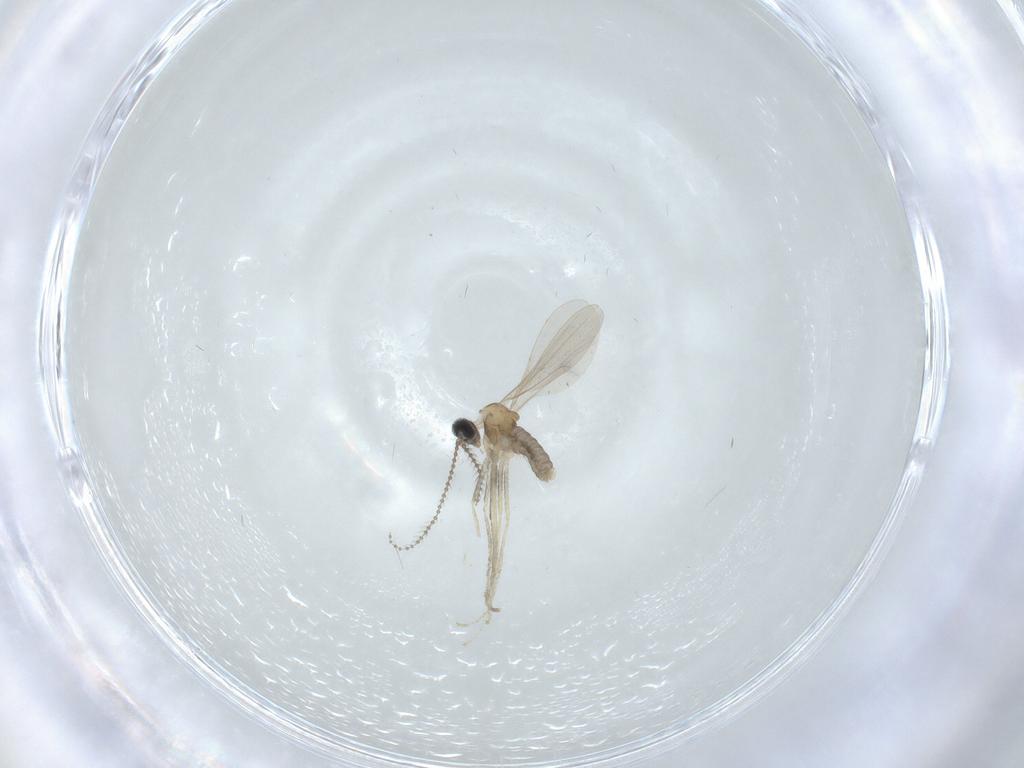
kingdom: Animalia
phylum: Arthropoda
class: Insecta
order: Diptera
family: Cecidomyiidae
